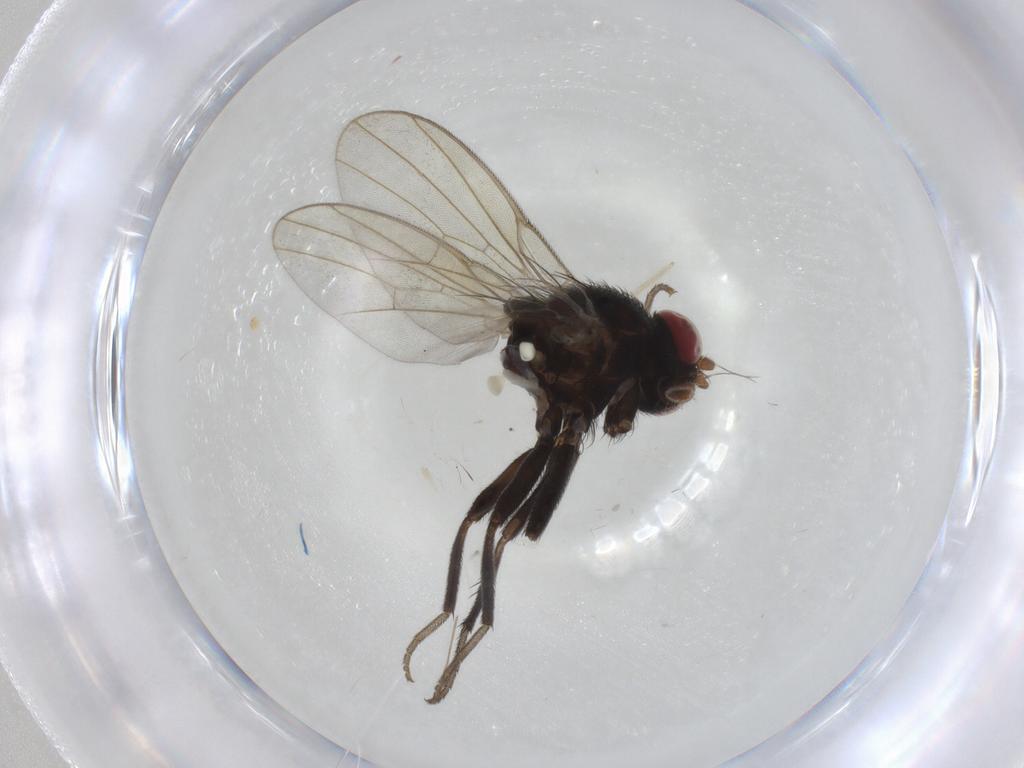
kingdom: Animalia
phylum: Arthropoda
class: Insecta
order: Diptera
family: Cecidomyiidae
